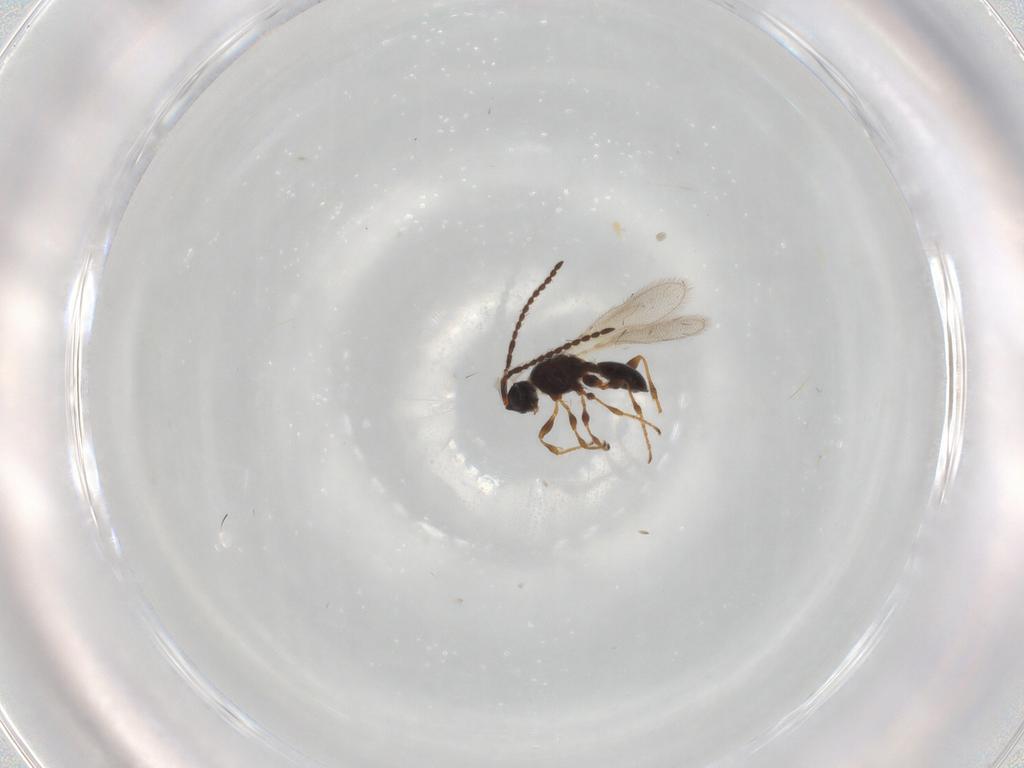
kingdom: Animalia
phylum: Arthropoda
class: Insecta
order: Hymenoptera
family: Diapriidae
